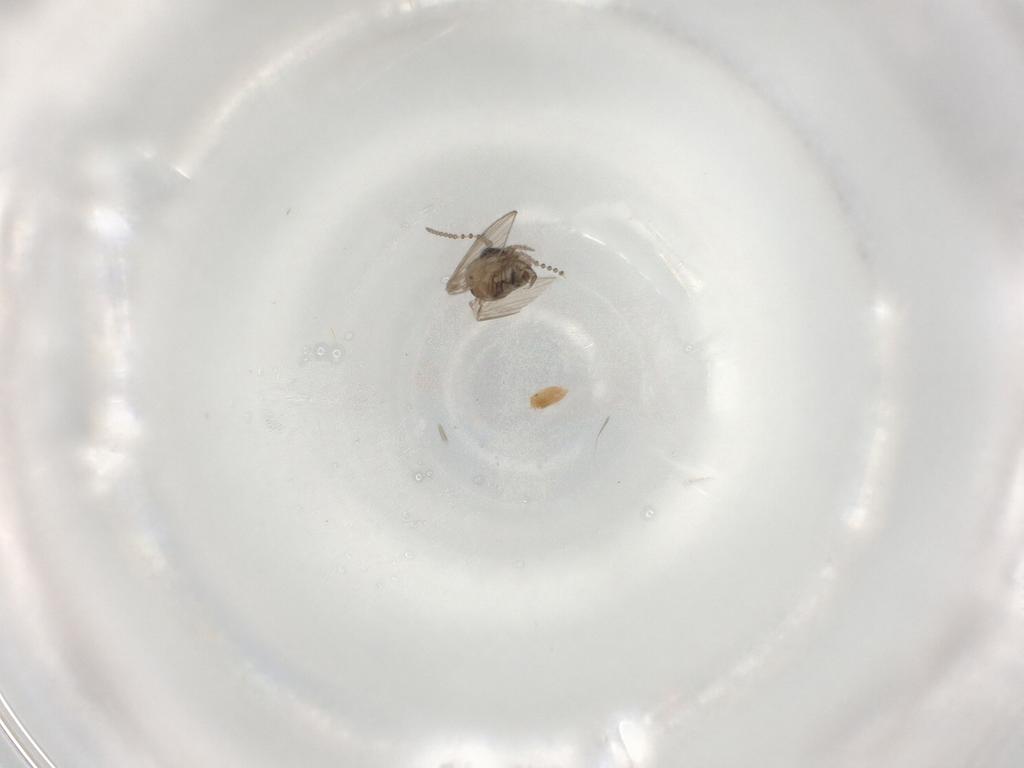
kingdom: Animalia
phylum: Arthropoda
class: Insecta
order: Diptera
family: Psychodidae
